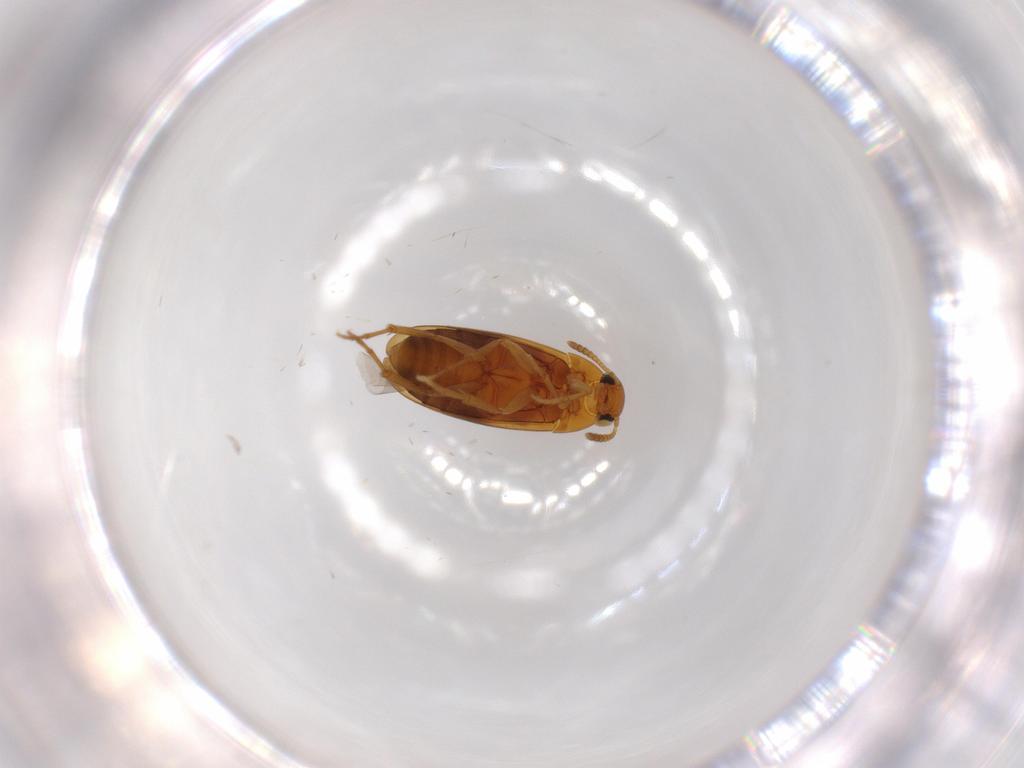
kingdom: Animalia
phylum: Arthropoda
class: Insecta
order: Coleoptera
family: Scraptiidae
